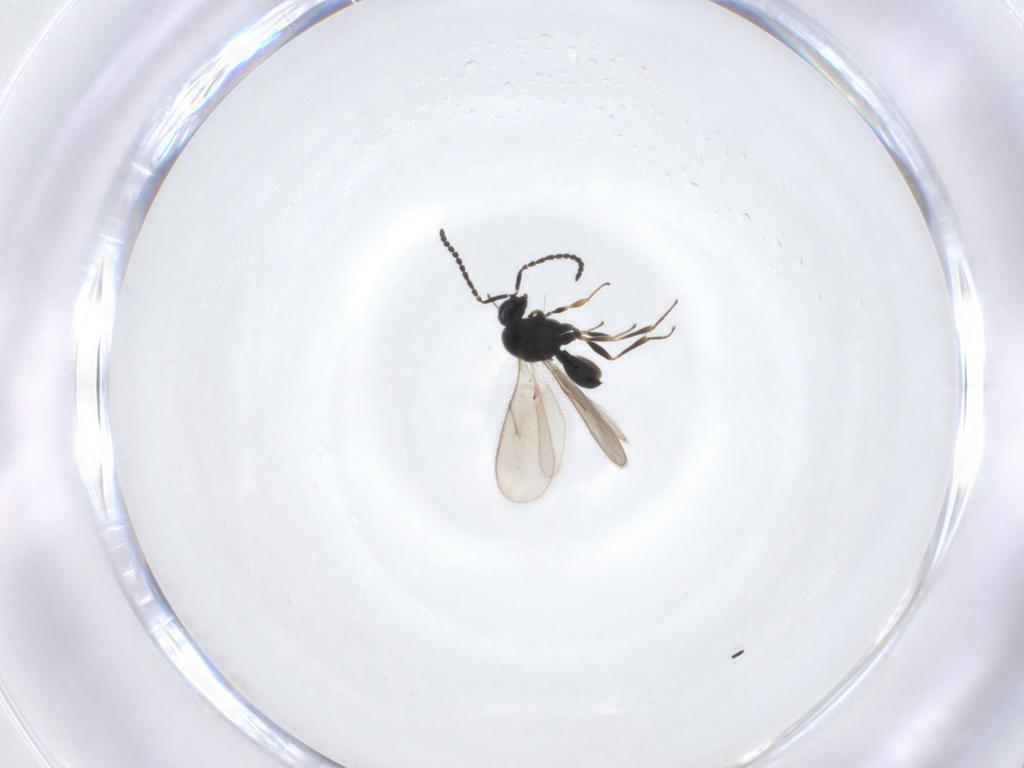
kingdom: Animalia
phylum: Arthropoda
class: Insecta
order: Hymenoptera
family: Scelionidae
